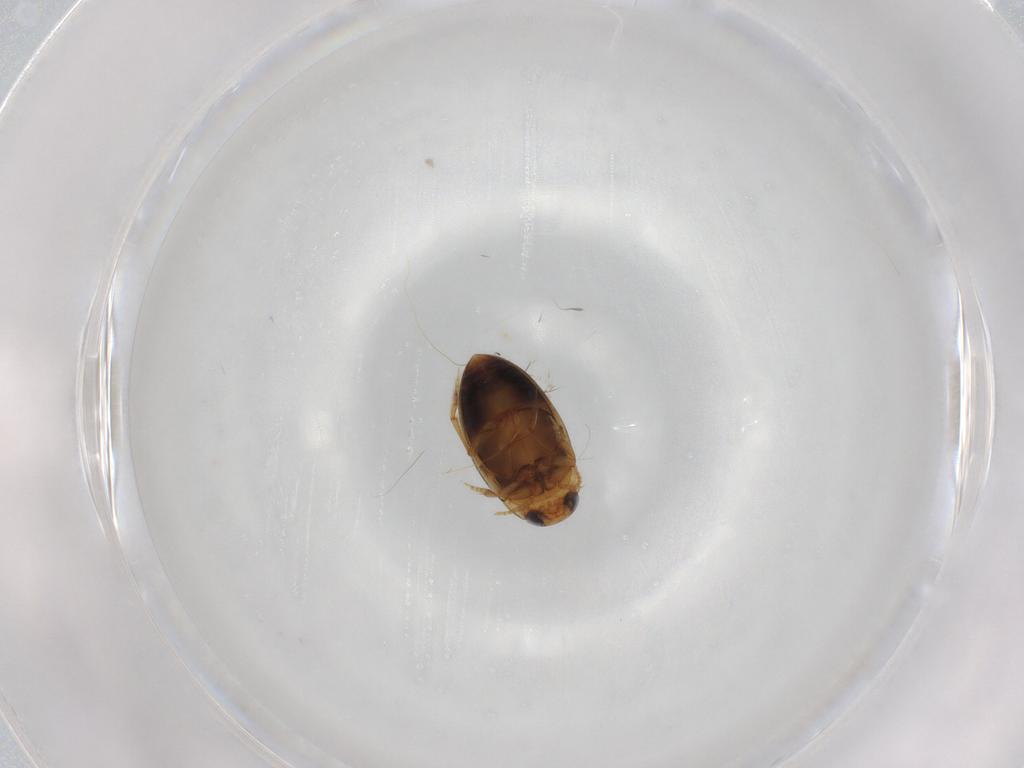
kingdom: Animalia
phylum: Arthropoda
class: Insecta
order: Coleoptera
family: Dytiscidae
